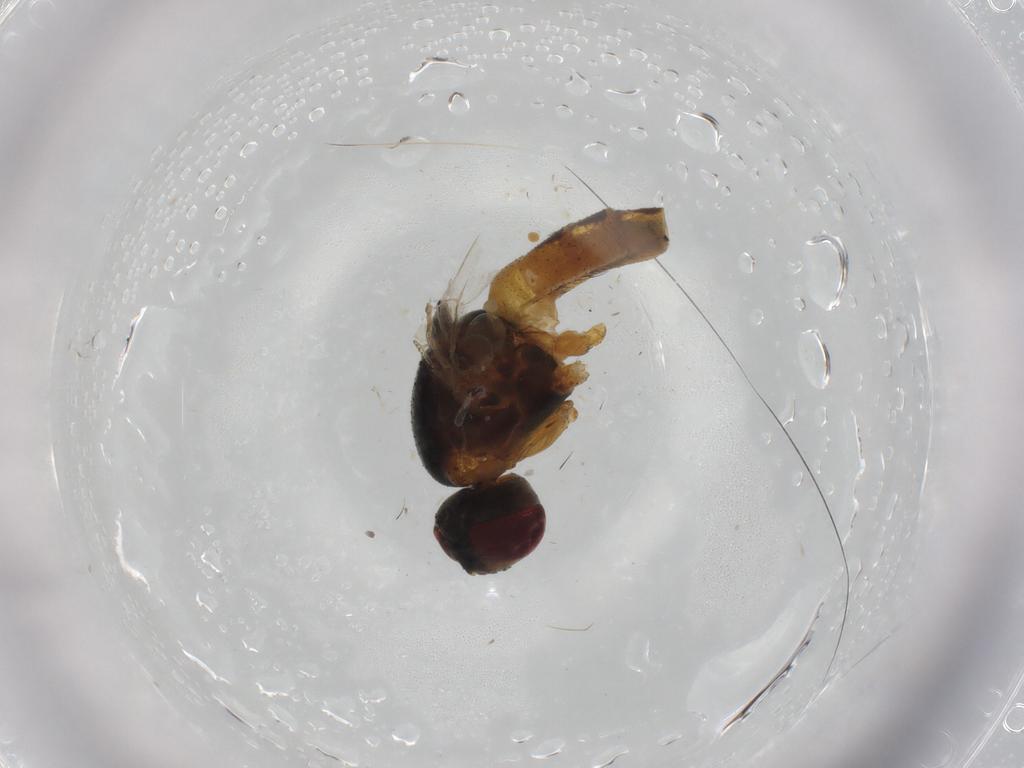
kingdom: Animalia
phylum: Arthropoda
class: Insecta
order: Diptera
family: Muscidae
